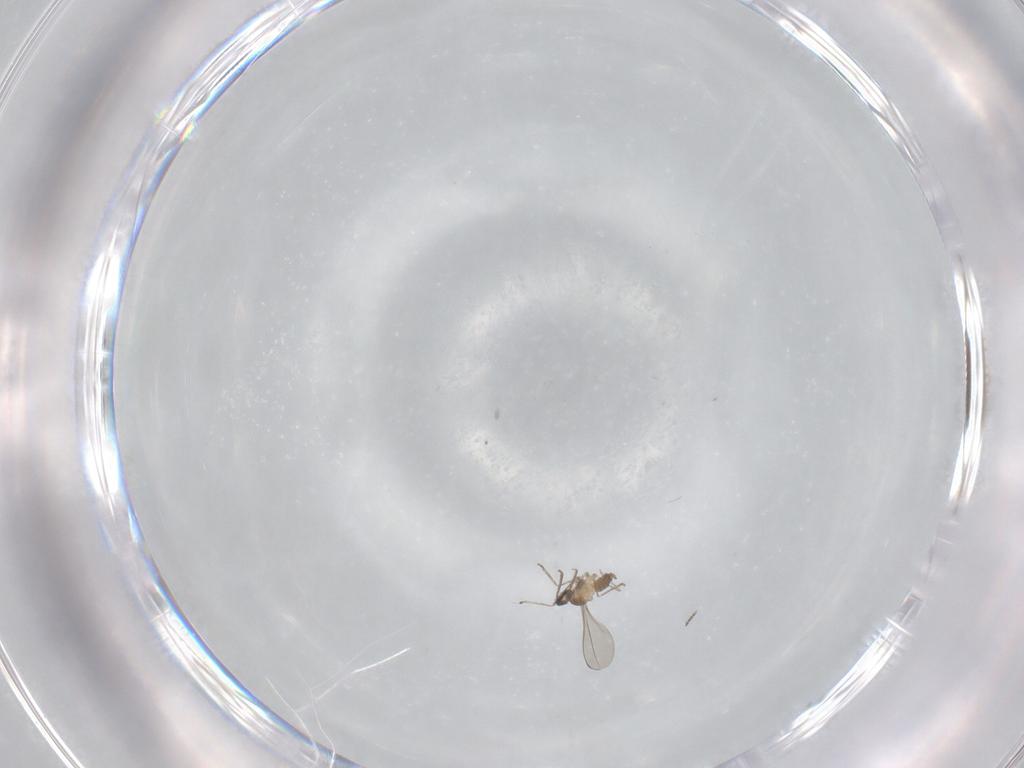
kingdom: Animalia
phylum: Arthropoda
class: Insecta
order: Diptera
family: Cecidomyiidae
